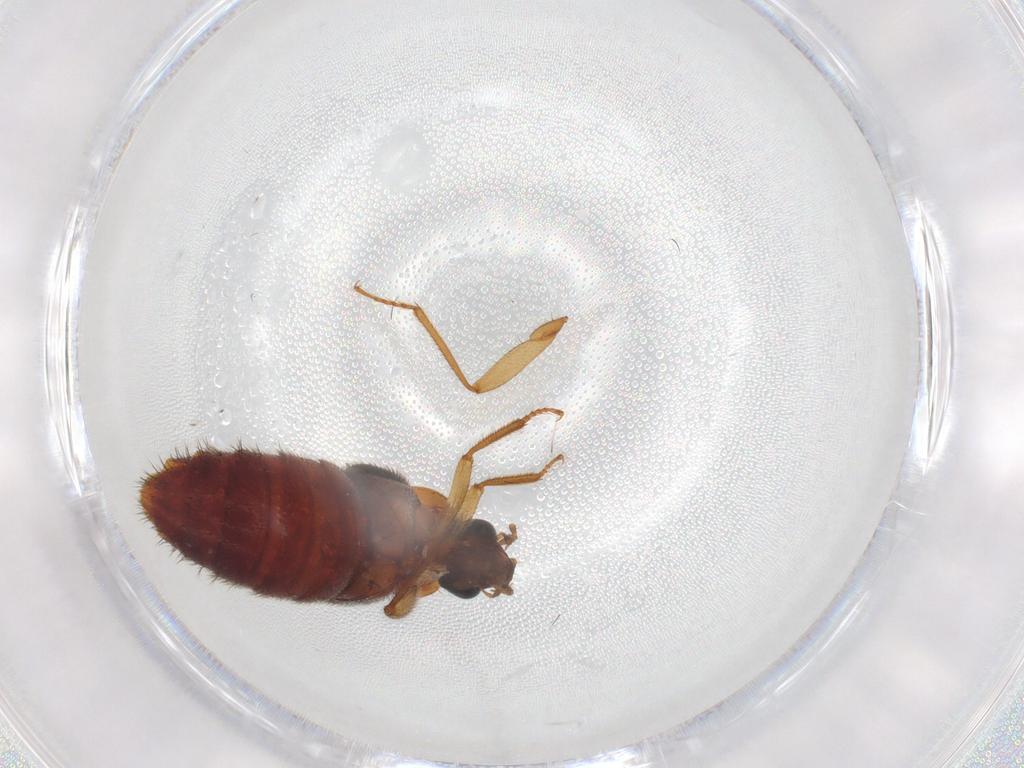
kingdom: Animalia
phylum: Arthropoda
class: Insecta
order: Coleoptera
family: Staphylinidae
